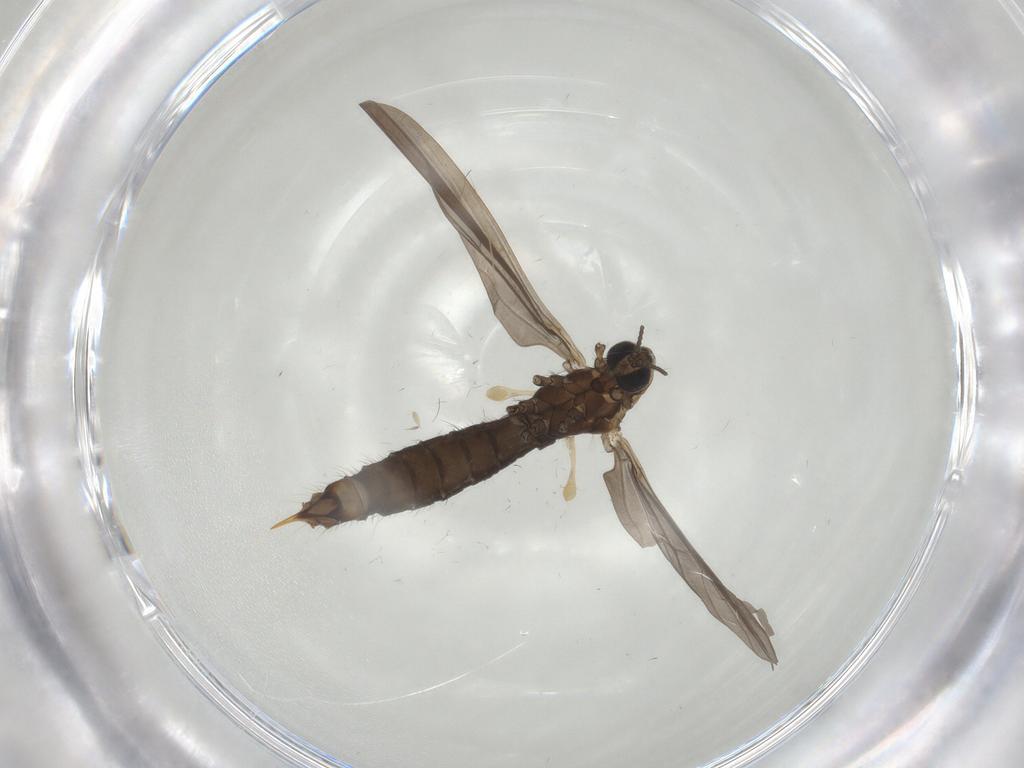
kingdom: Animalia
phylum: Arthropoda
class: Insecta
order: Diptera
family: Limoniidae
